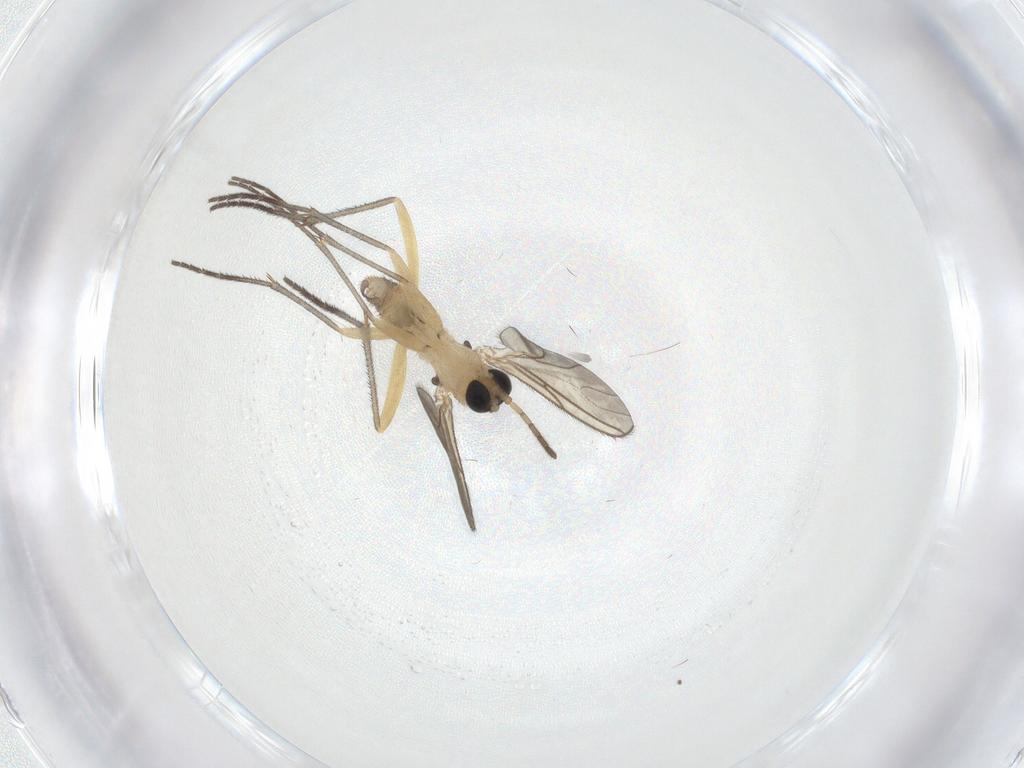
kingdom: Animalia
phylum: Arthropoda
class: Insecta
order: Diptera
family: Sciaridae
